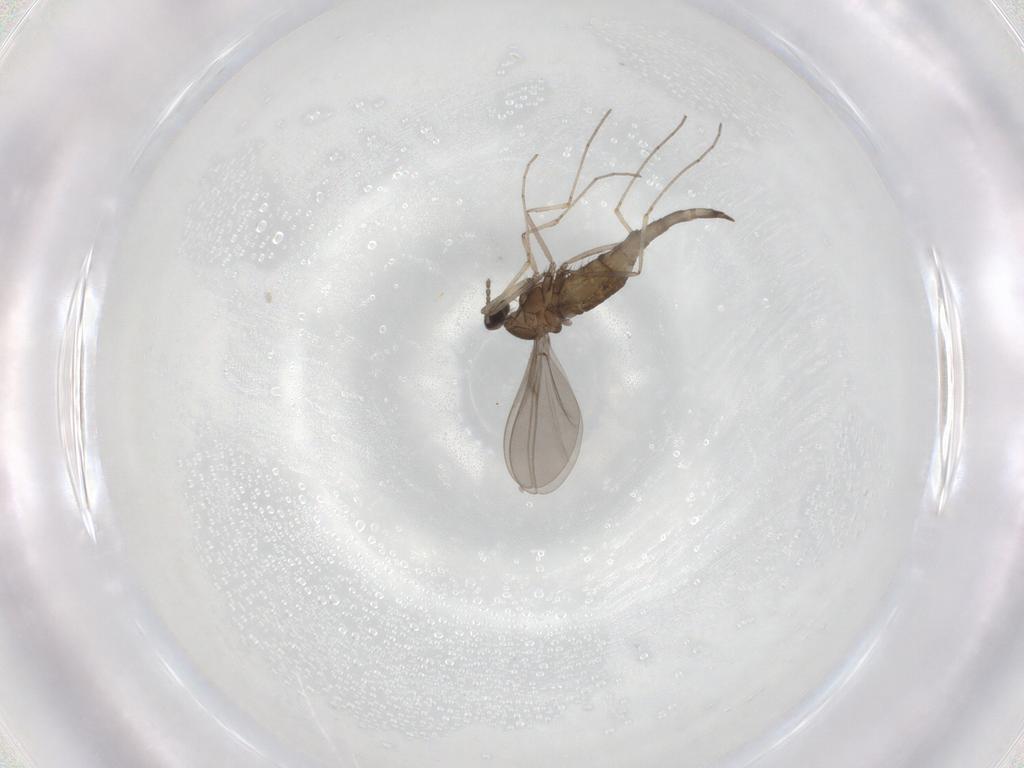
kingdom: Animalia
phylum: Arthropoda
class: Insecta
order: Diptera
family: Cecidomyiidae
